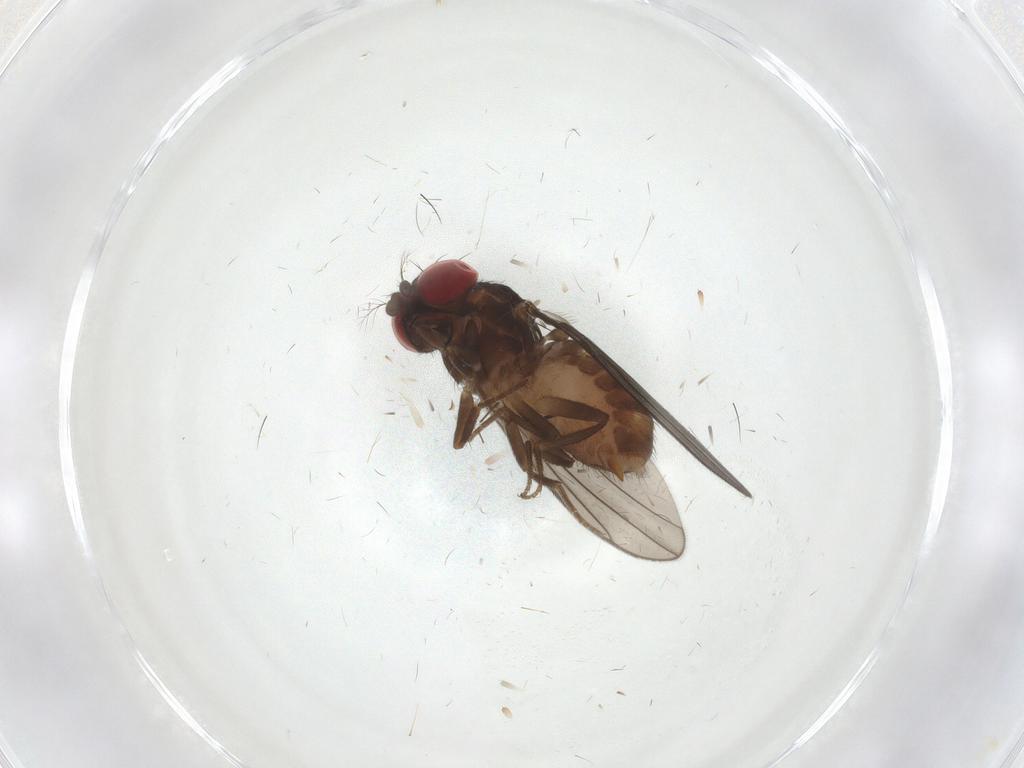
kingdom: Animalia
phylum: Arthropoda
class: Insecta
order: Diptera
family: Drosophilidae
